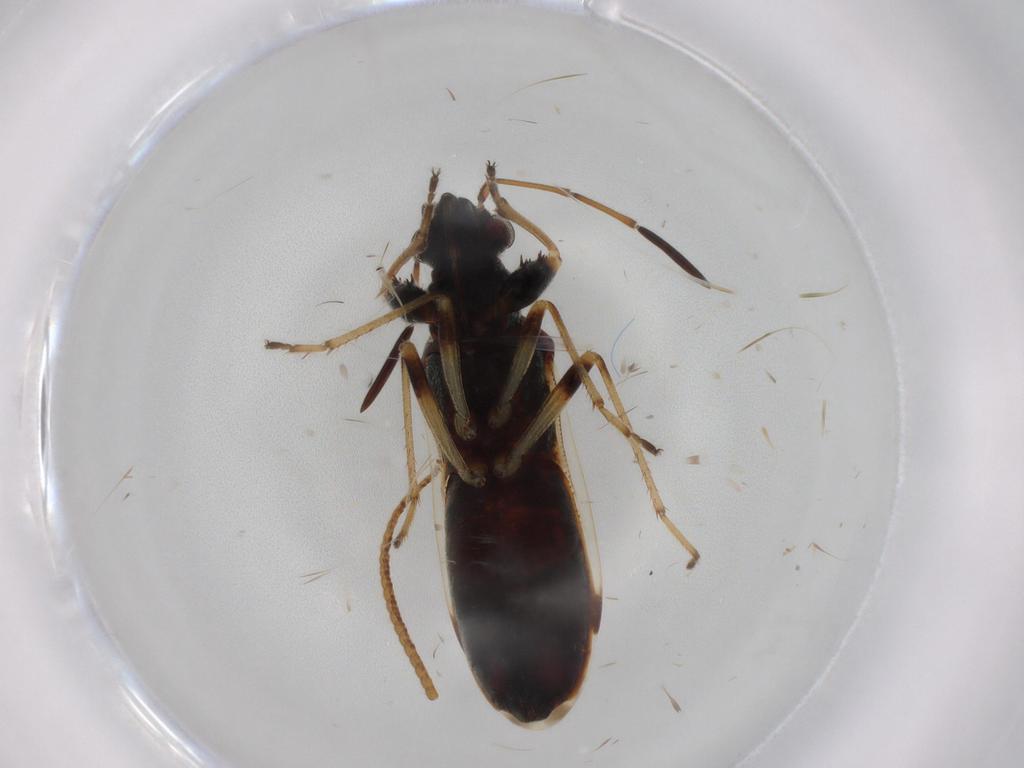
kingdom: Animalia
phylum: Arthropoda
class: Insecta
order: Hemiptera
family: Rhyparochromidae
